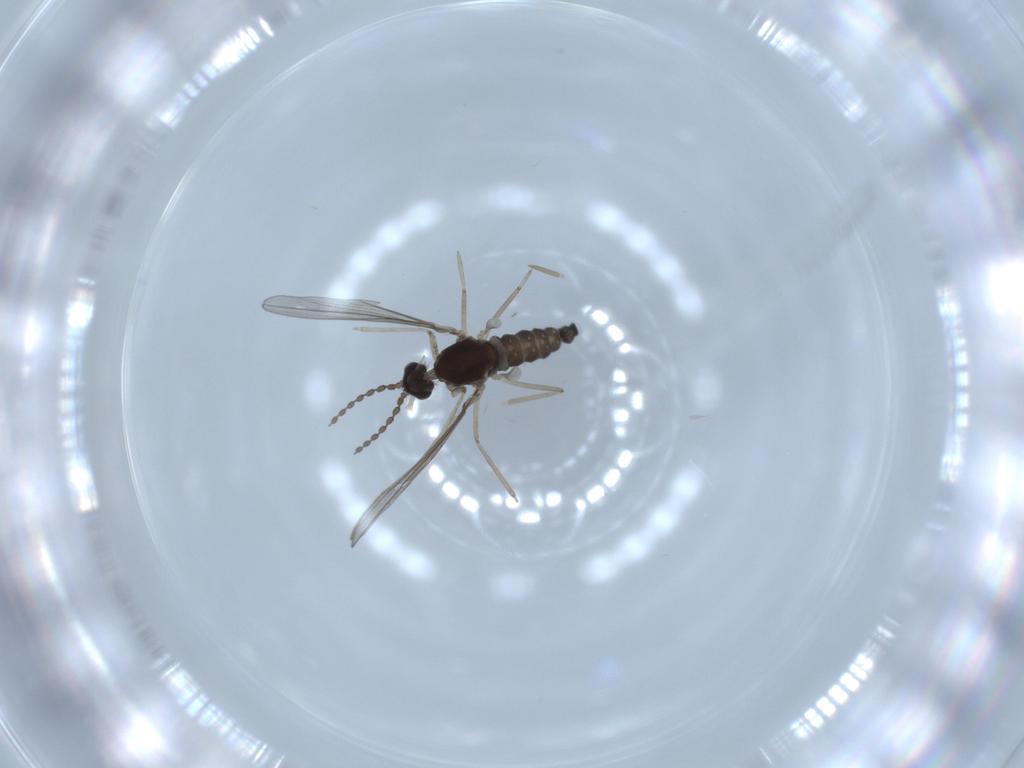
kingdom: Animalia
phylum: Arthropoda
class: Insecta
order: Diptera
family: Cecidomyiidae
